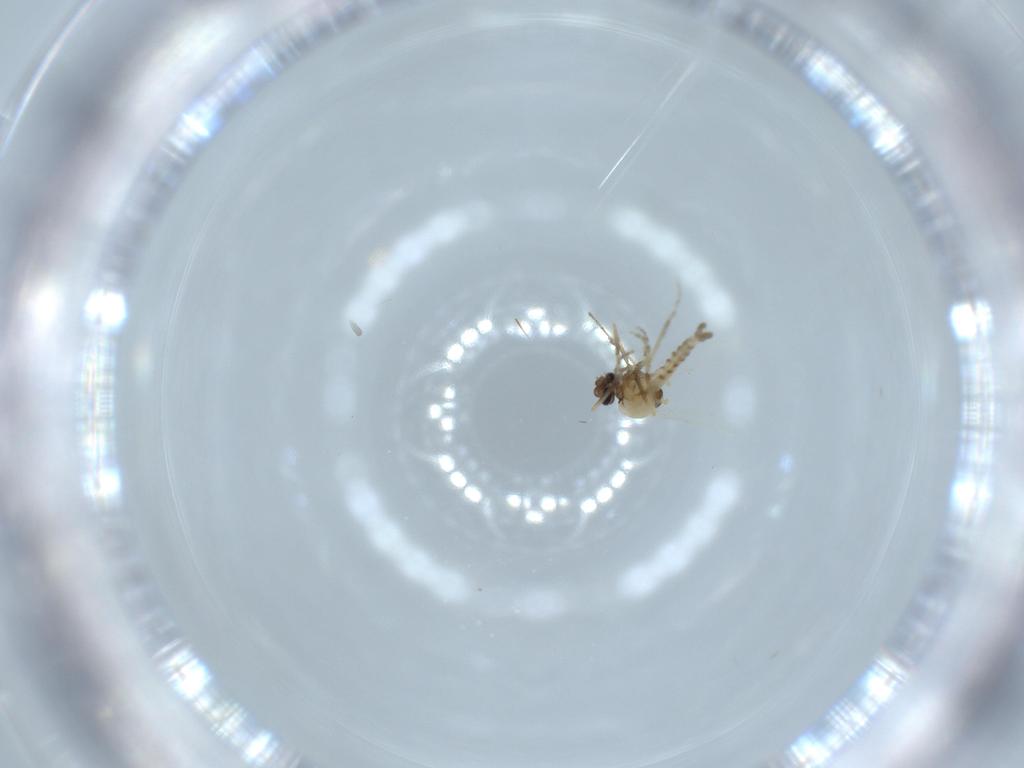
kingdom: Animalia
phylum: Arthropoda
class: Insecta
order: Diptera
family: Ceratopogonidae
